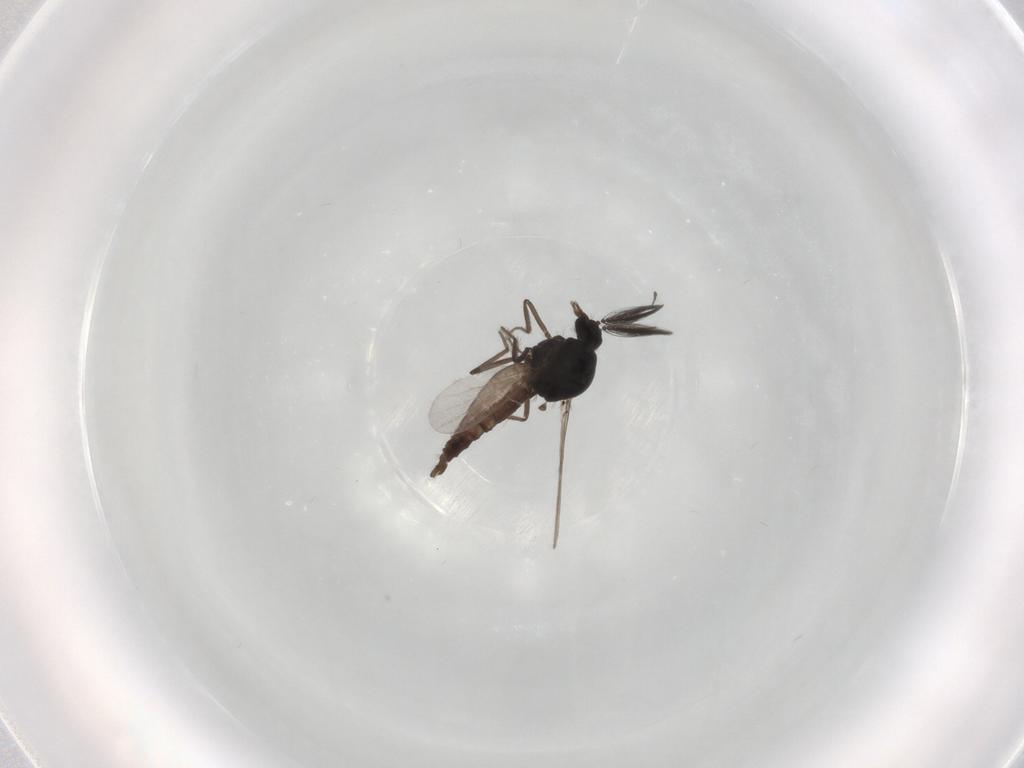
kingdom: Animalia
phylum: Arthropoda
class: Insecta
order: Diptera
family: Ceratopogonidae
